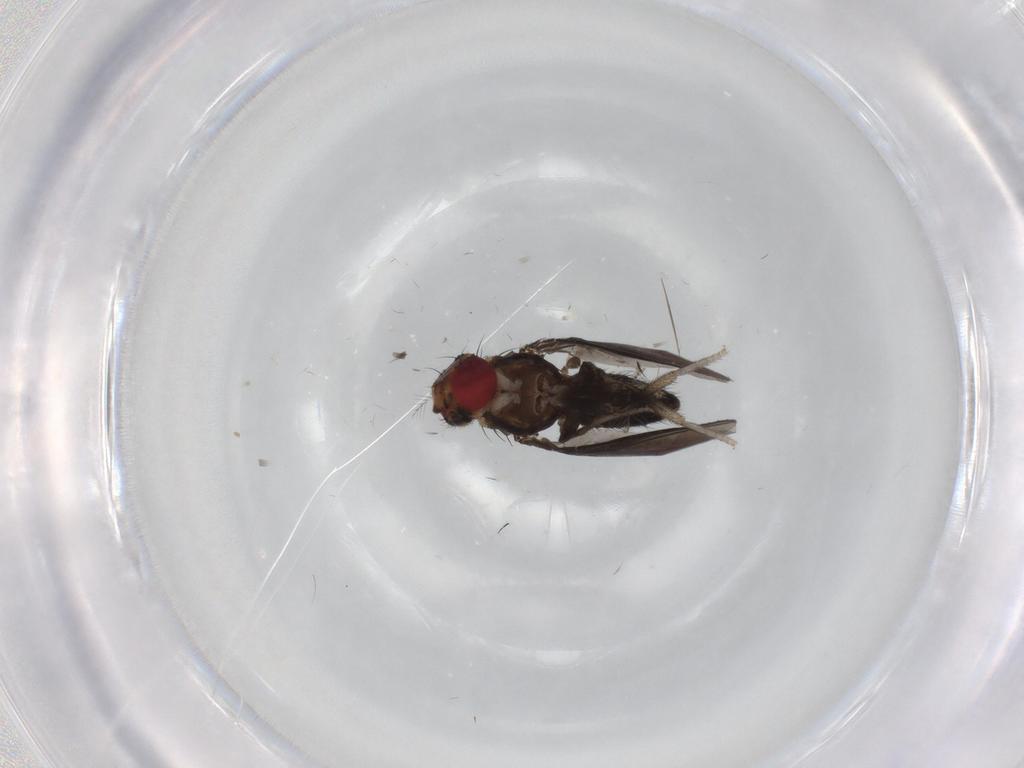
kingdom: Animalia
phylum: Arthropoda
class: Insecta
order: Diptera
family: Drosophilidae
